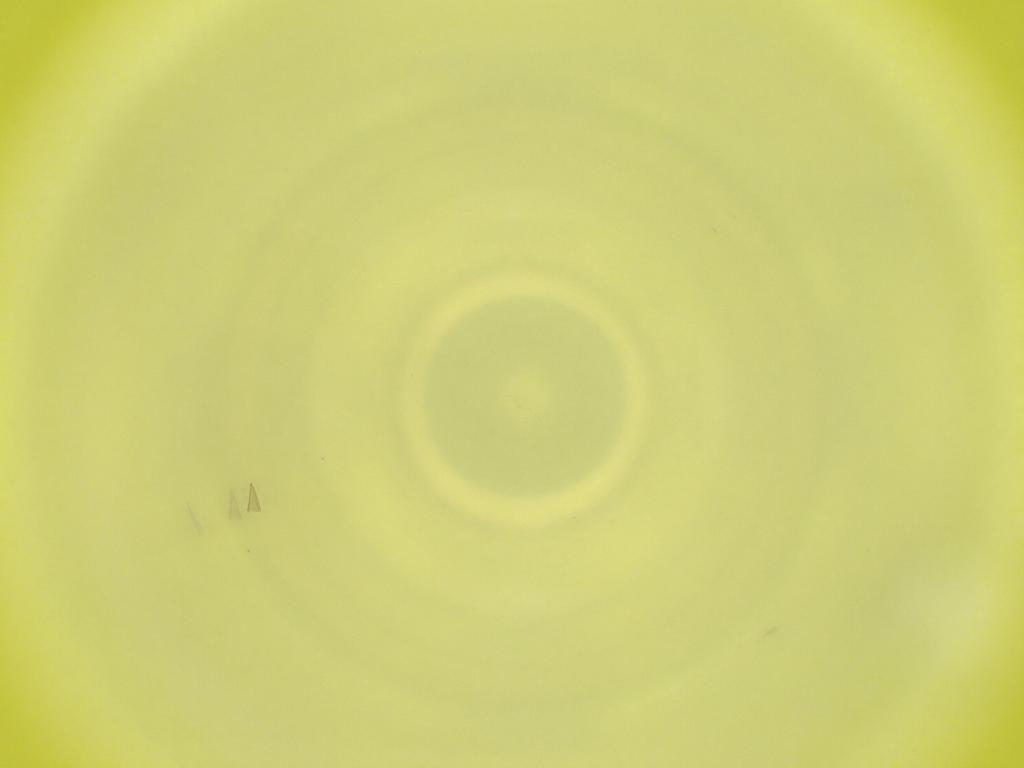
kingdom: Animalia
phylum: Arthropoda
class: Insecta
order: Diptera
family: Cecidomyiidae
